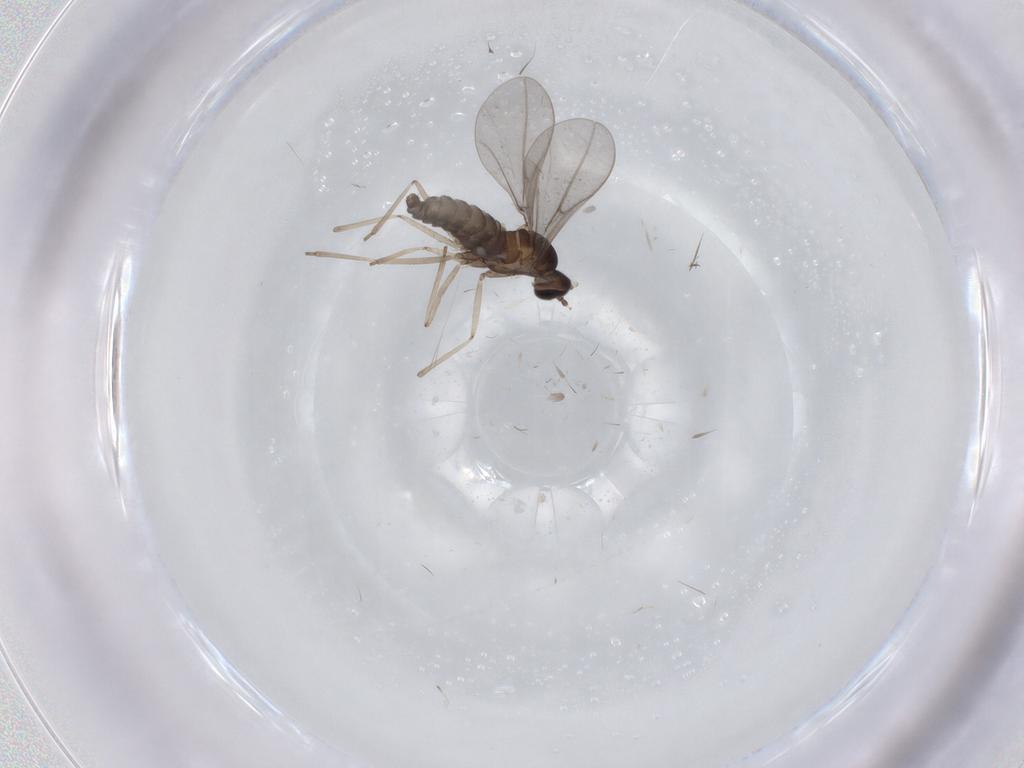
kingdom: Animalia
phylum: Arthropoda
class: Insecta
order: Diptera
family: Cecidomyiidae
